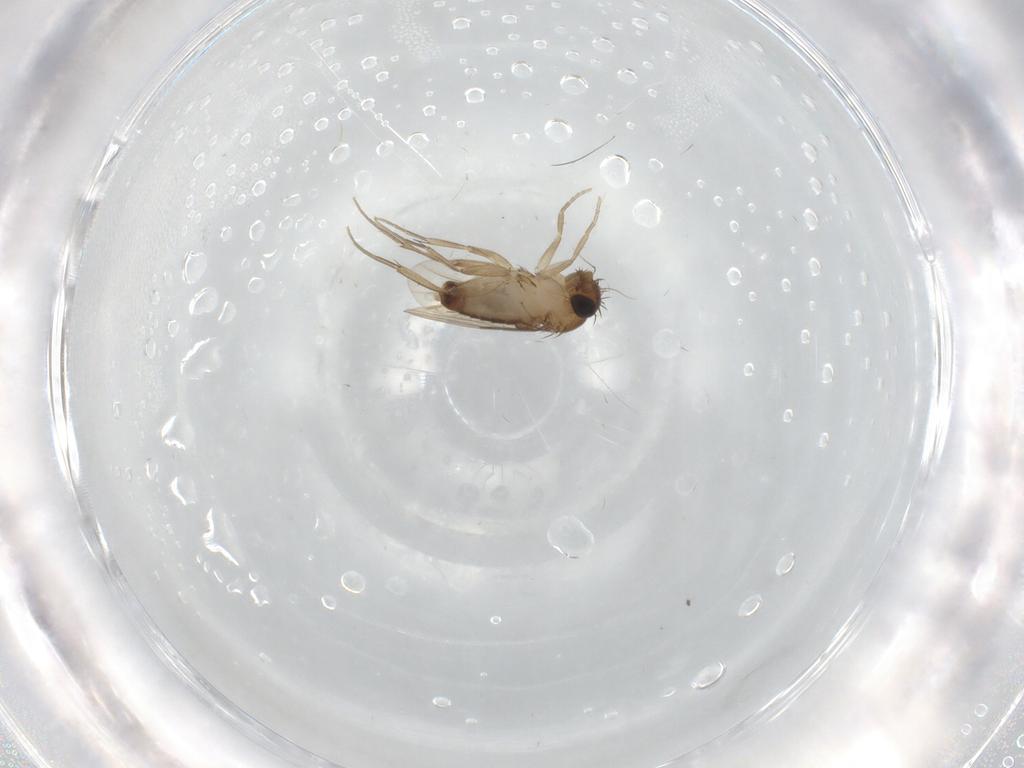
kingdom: Animalia
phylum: Arthropoda
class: Insecta
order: Diptera
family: Phoridae
